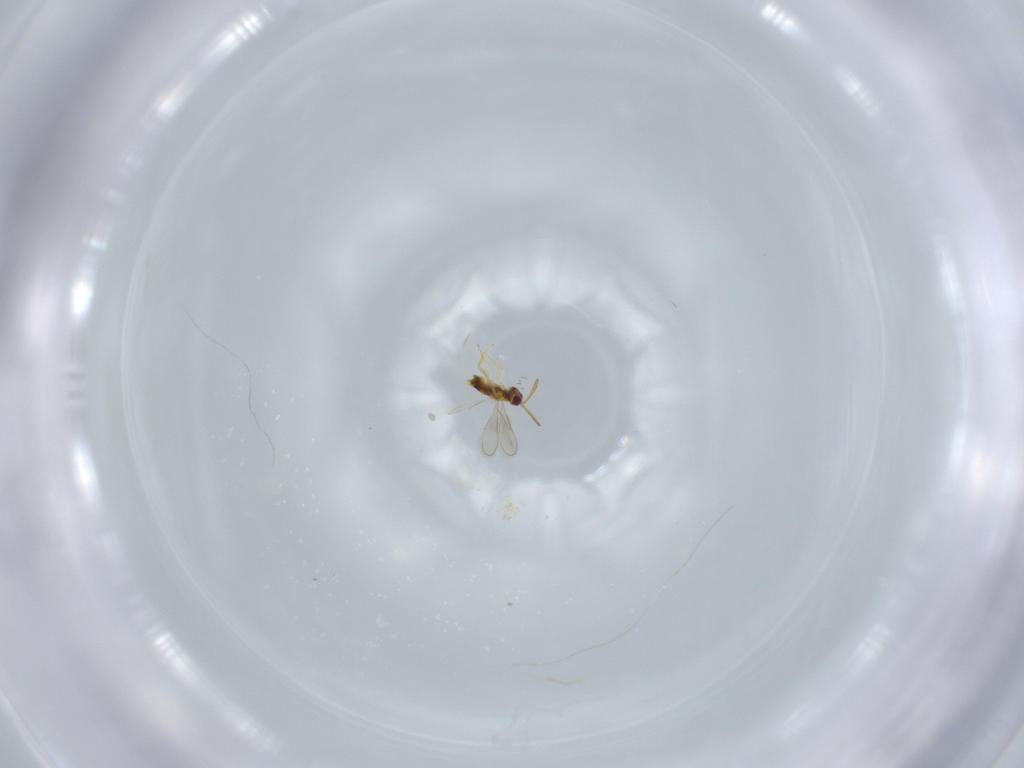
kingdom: Animalia
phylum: Arthropoda
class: Insecta
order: Hymenoptera
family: Aphelinidae
